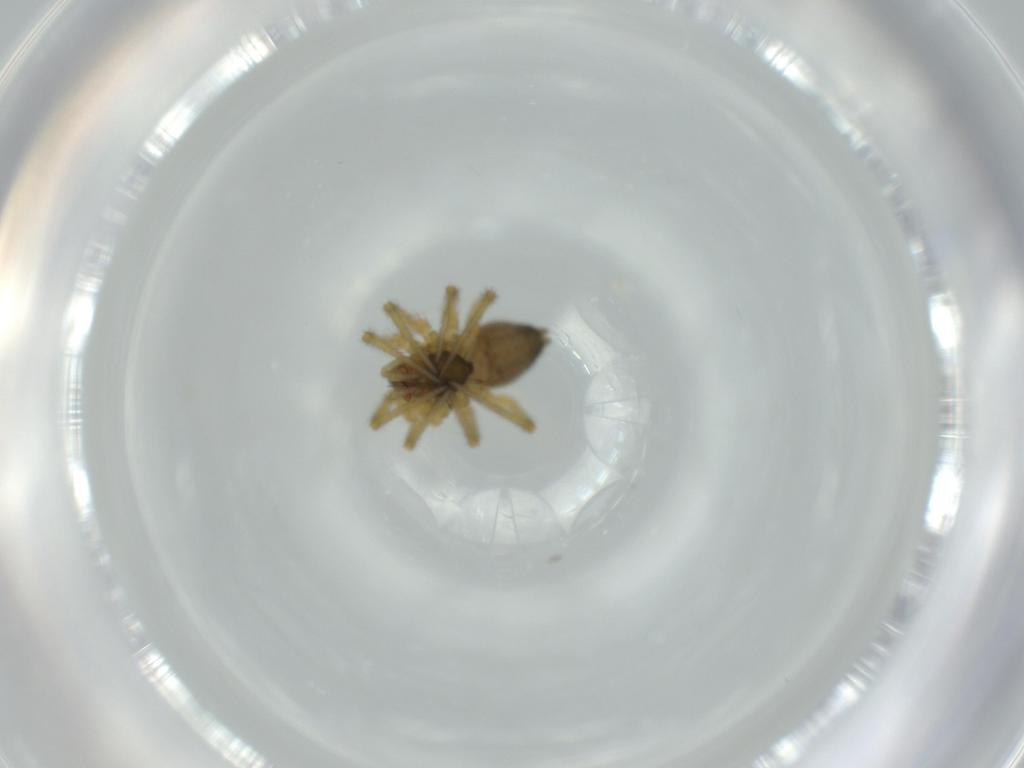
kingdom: Animalia
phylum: Arthropoda
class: Arachnida
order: Araneae
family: Linyphiidae
